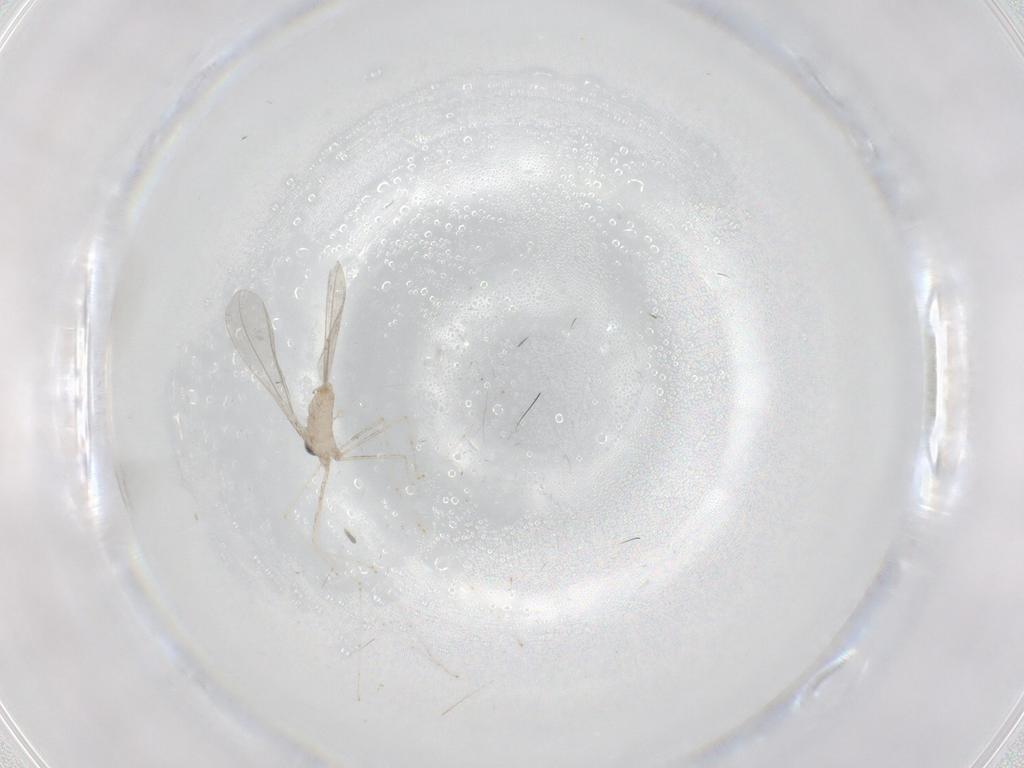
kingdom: Animalia
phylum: Arthropoda
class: Insecta
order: Diptera
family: Cecidomyiidae
